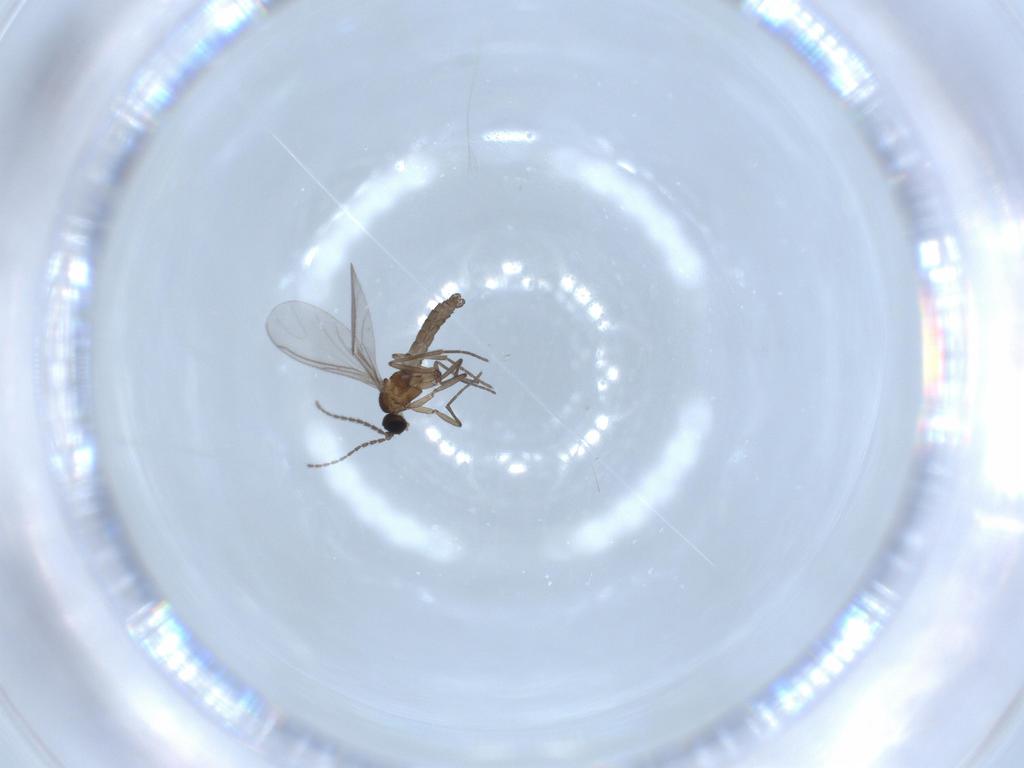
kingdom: Animalia
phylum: Arthropoda
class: Insecta
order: Diptera
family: Sciaridae
